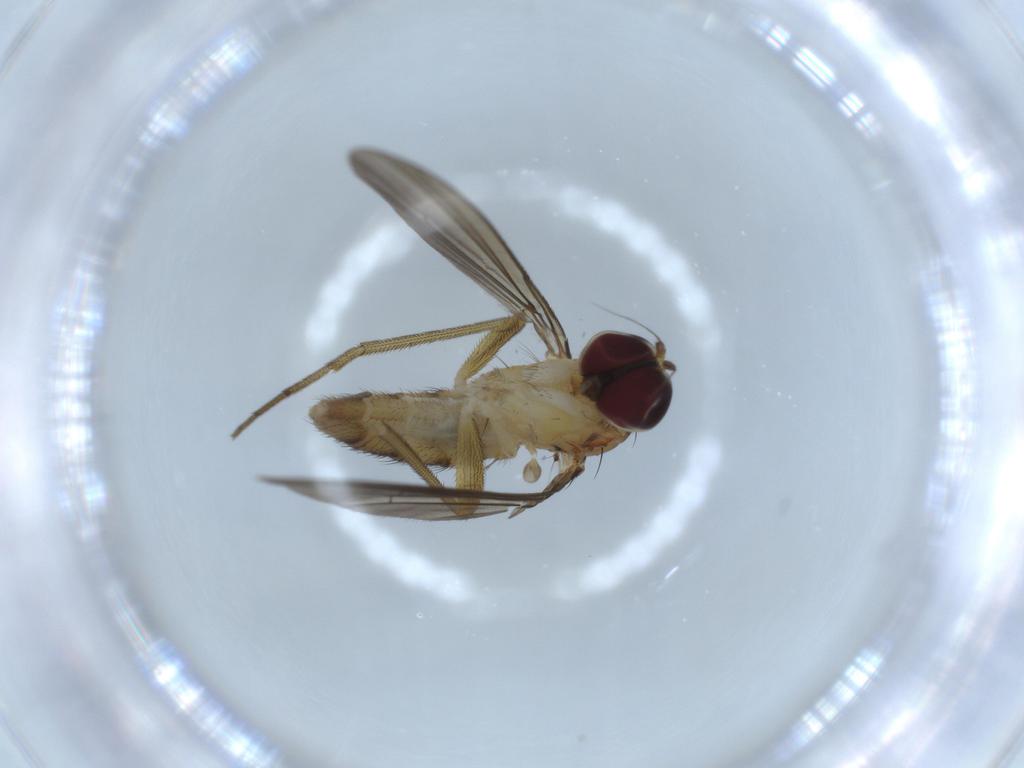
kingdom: Animalia
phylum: Arthropoda
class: Insecta
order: Diptera
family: Dolichopodidae
